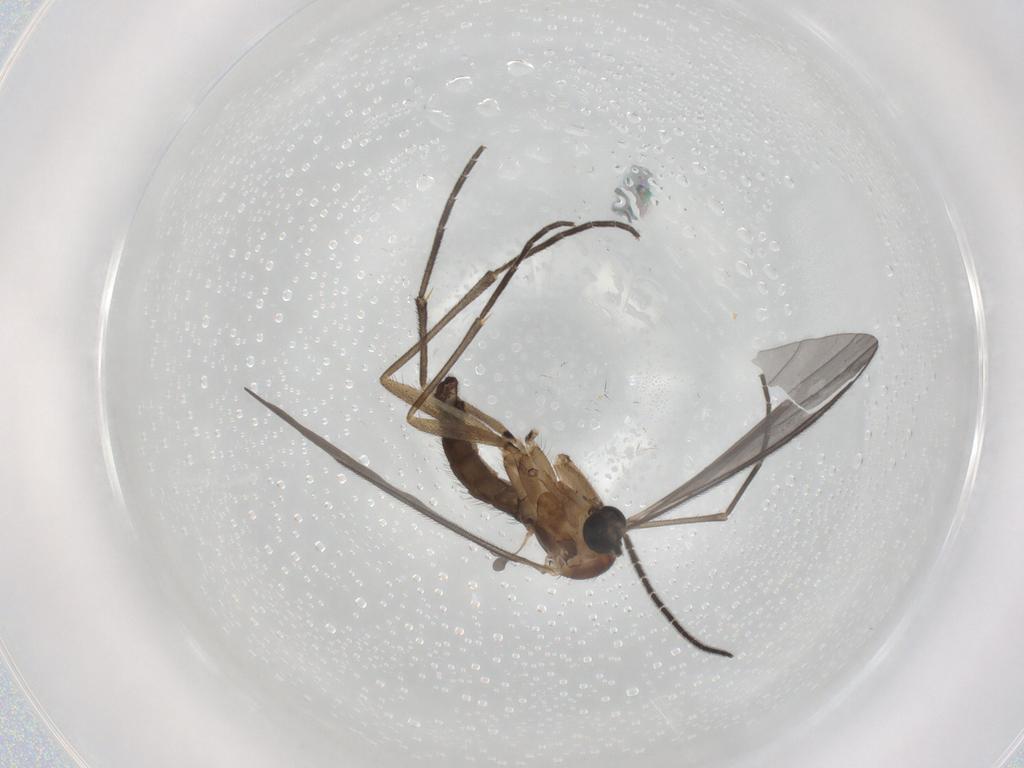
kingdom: Animalia
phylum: Arthropoda
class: Insecta
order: Diptera
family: Sciaridae
